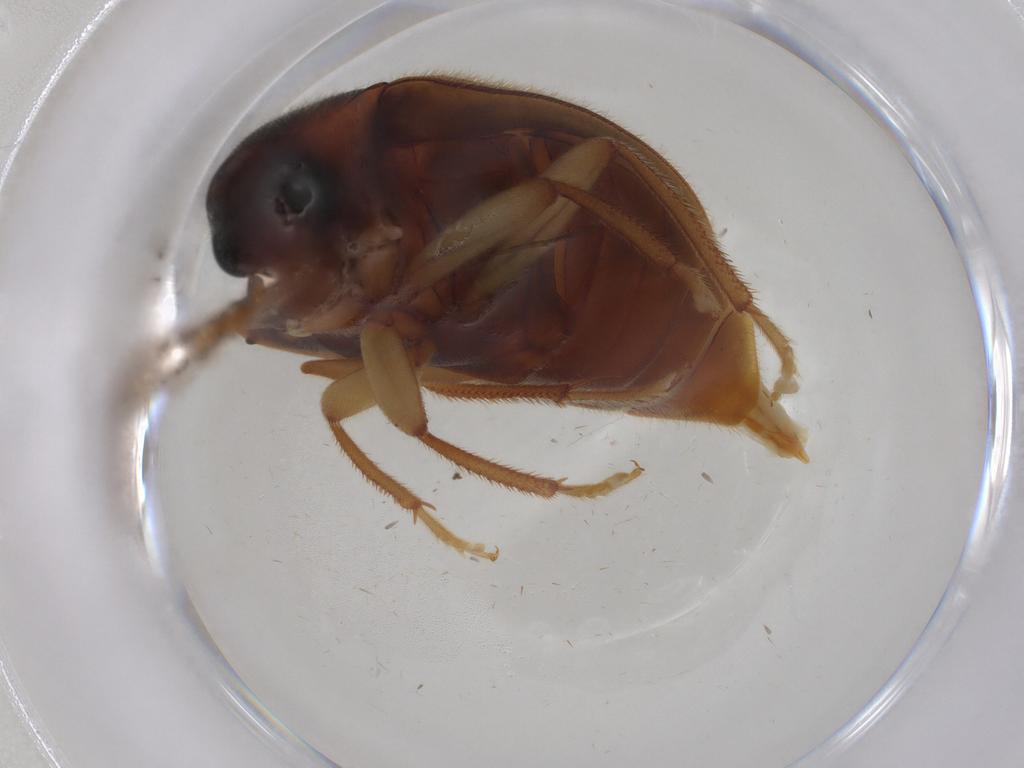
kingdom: Animalia
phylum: Arthropoda
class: Insecta
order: Coleoptera
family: Ptilodactylidae
